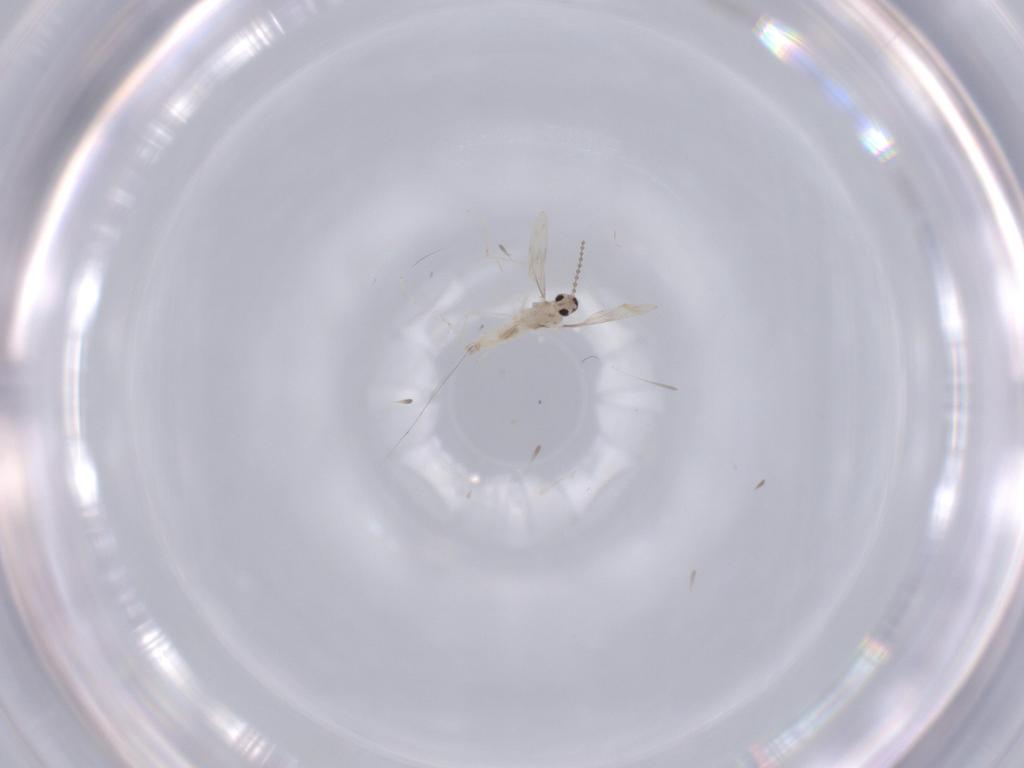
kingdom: Animalia
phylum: Arthropoda
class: Insecta
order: Diptera
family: Cecidomyiidae
